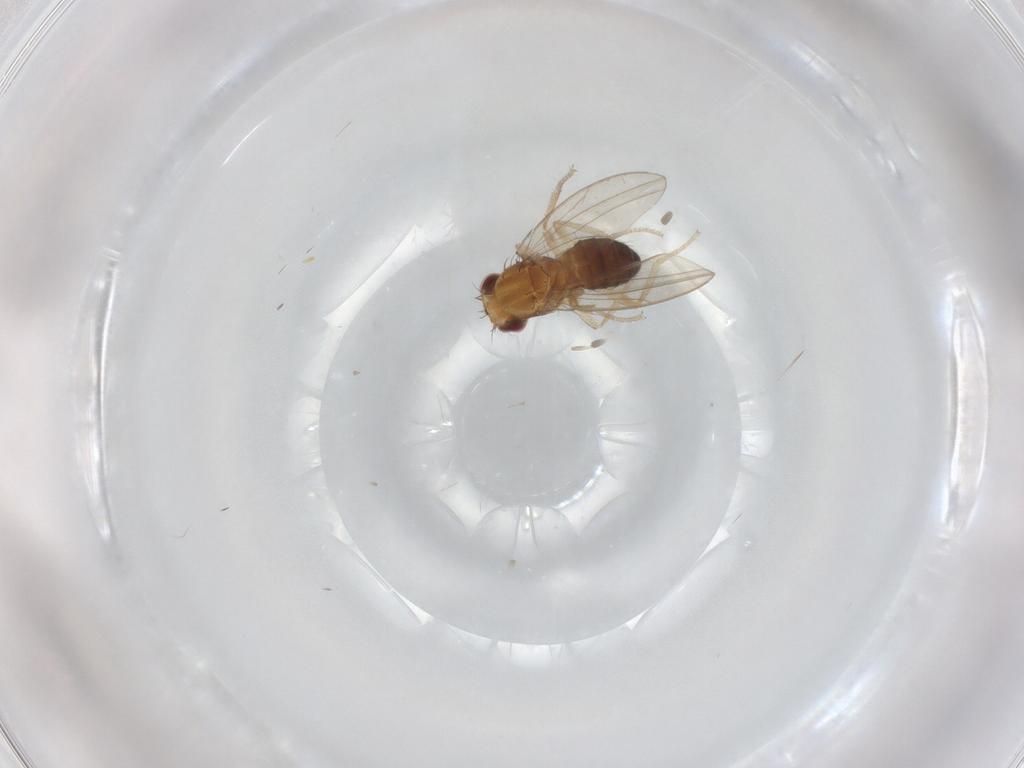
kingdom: Animalia
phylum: Arthropoda
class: Insecta
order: Diptera
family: Drosophilidae
